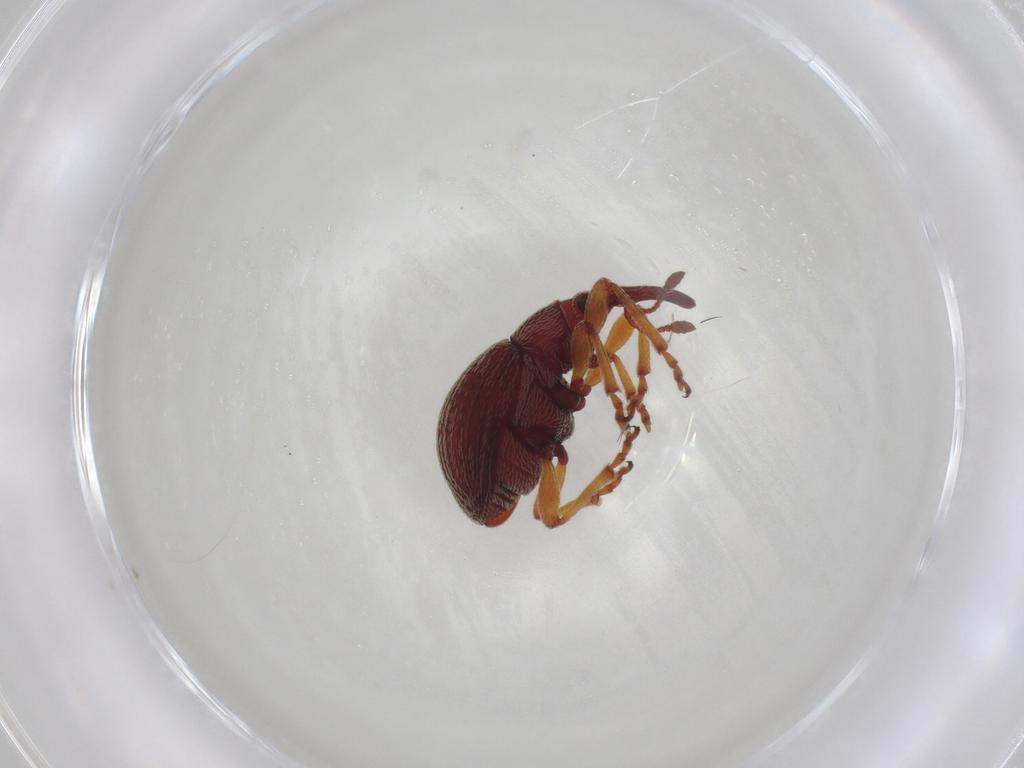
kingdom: Animalia
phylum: Arthropoda
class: Insecta
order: Coleoptera
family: Brentidae
